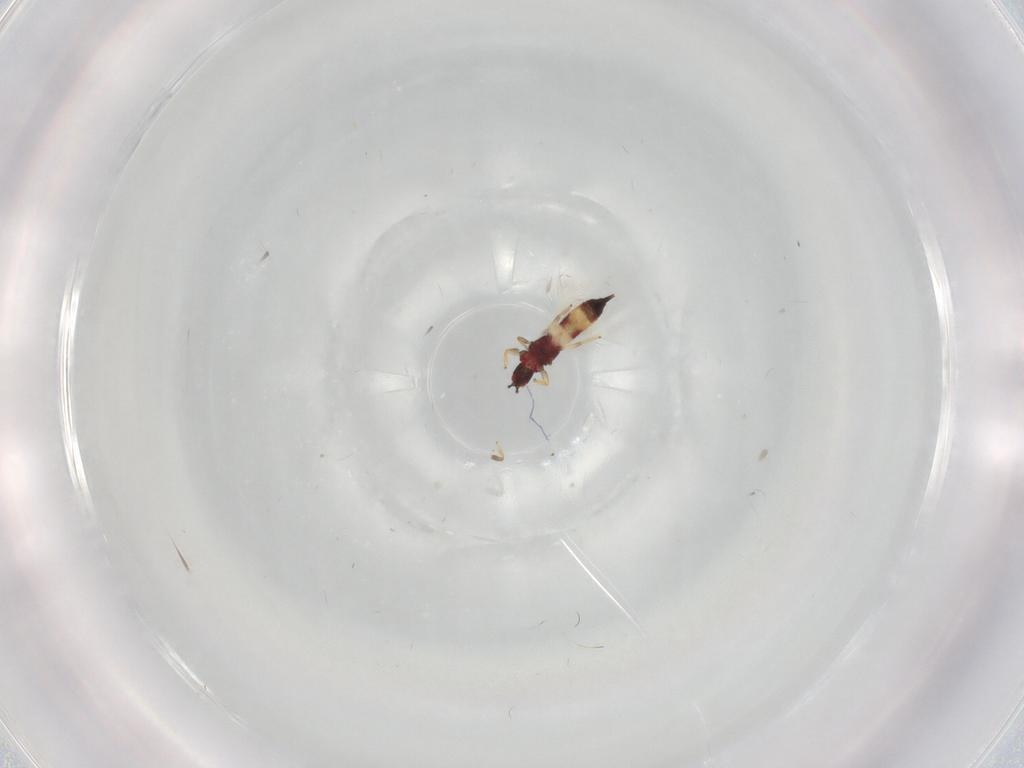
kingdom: Animalia
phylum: Arthropoda
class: Insecta
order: Thysanoptera
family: Phlaeothripidae
